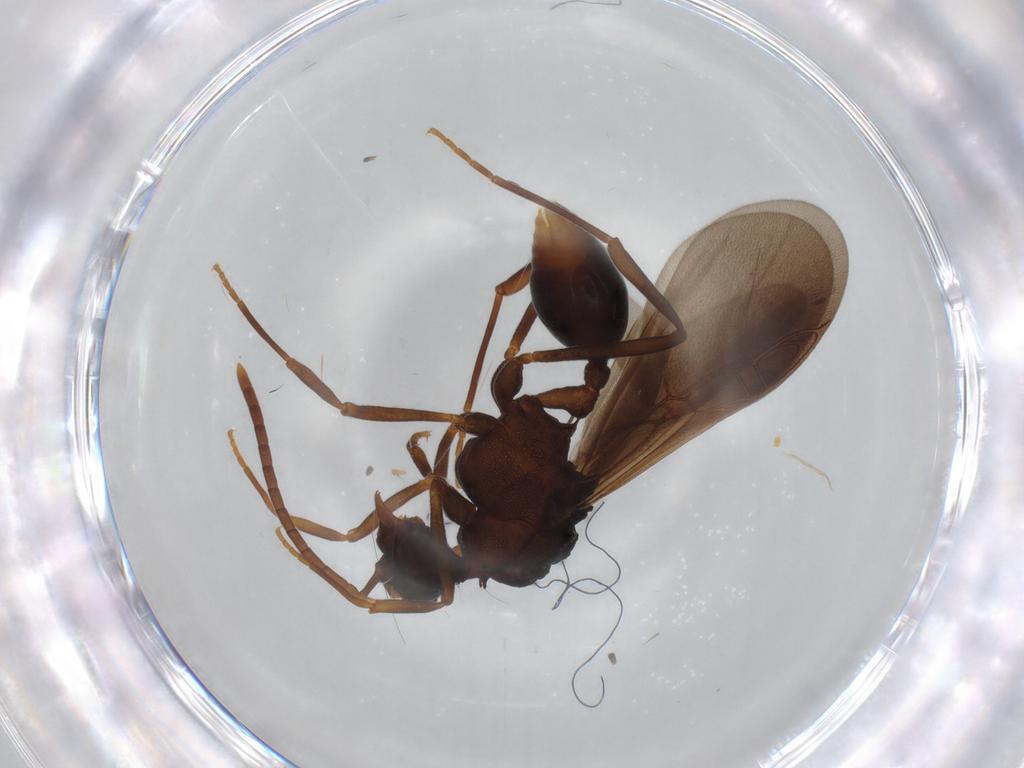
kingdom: Animalia
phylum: Arthropoda
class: Insecta
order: Hymenoptera
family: Formicidae
